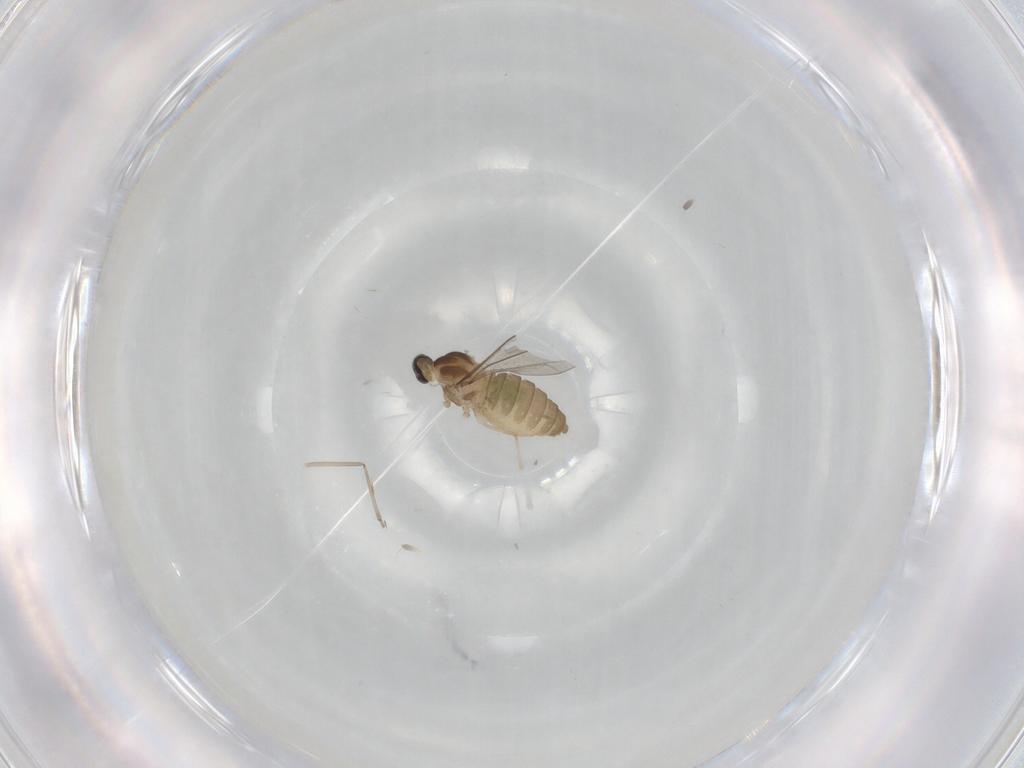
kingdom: Animalia
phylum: Arthropoda
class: Insecta
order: Diptera
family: Cecidomyiidae
